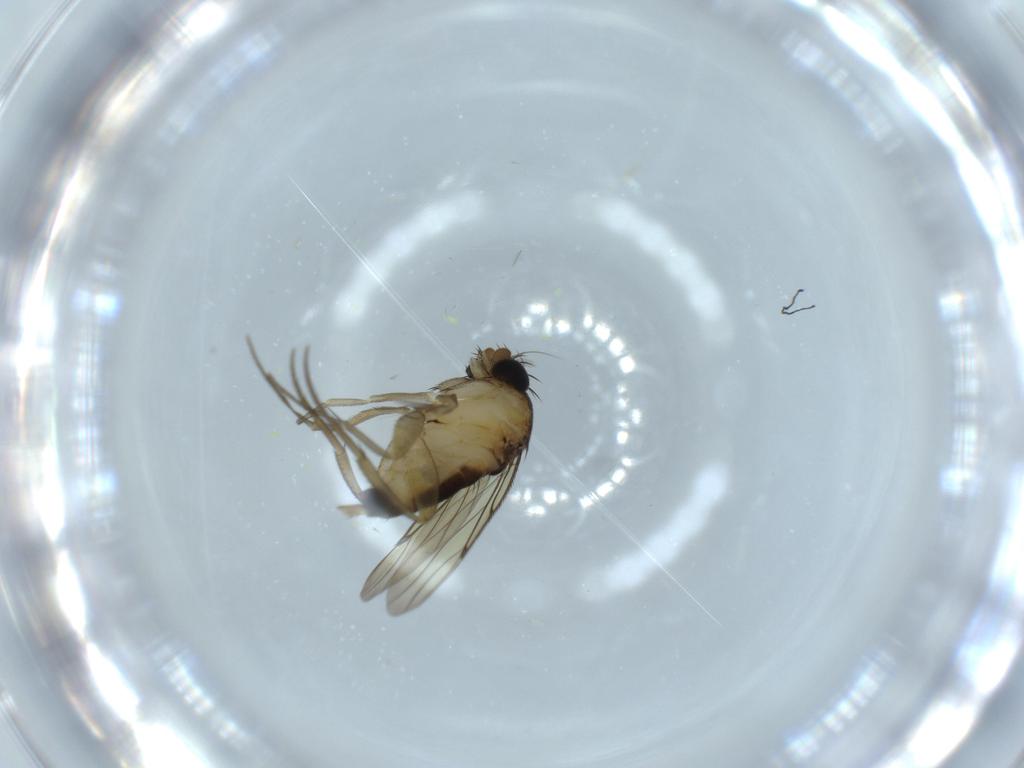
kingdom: Animalia
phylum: Arthropoda
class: Insecta
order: Diptera
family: Phoridae
